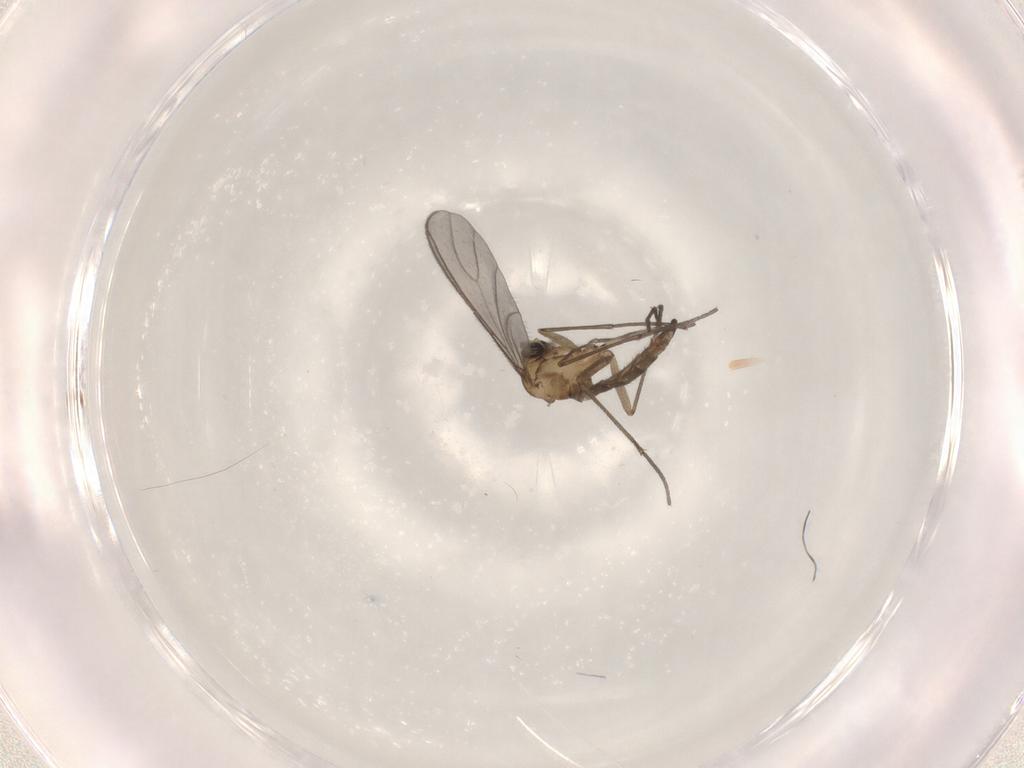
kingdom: Animalia
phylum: Arthropoda
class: Insecta
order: Diptera
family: Sciaridae
